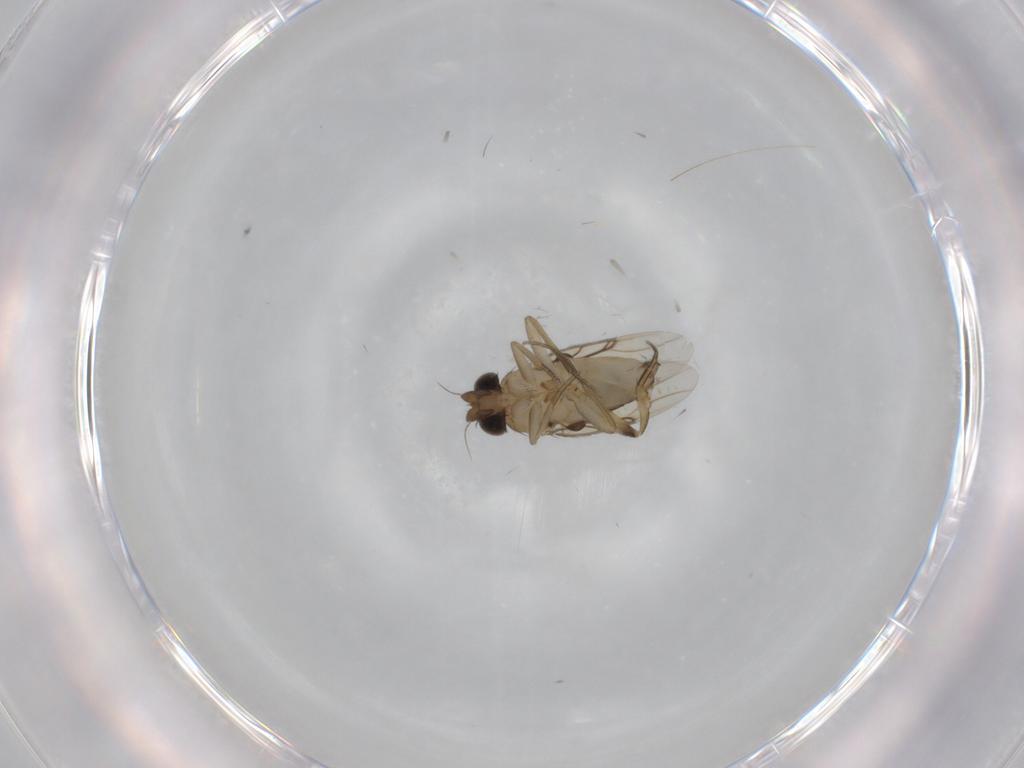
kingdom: Animalia
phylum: Arthropoda
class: Insecta
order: Diptera
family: Phoridae
